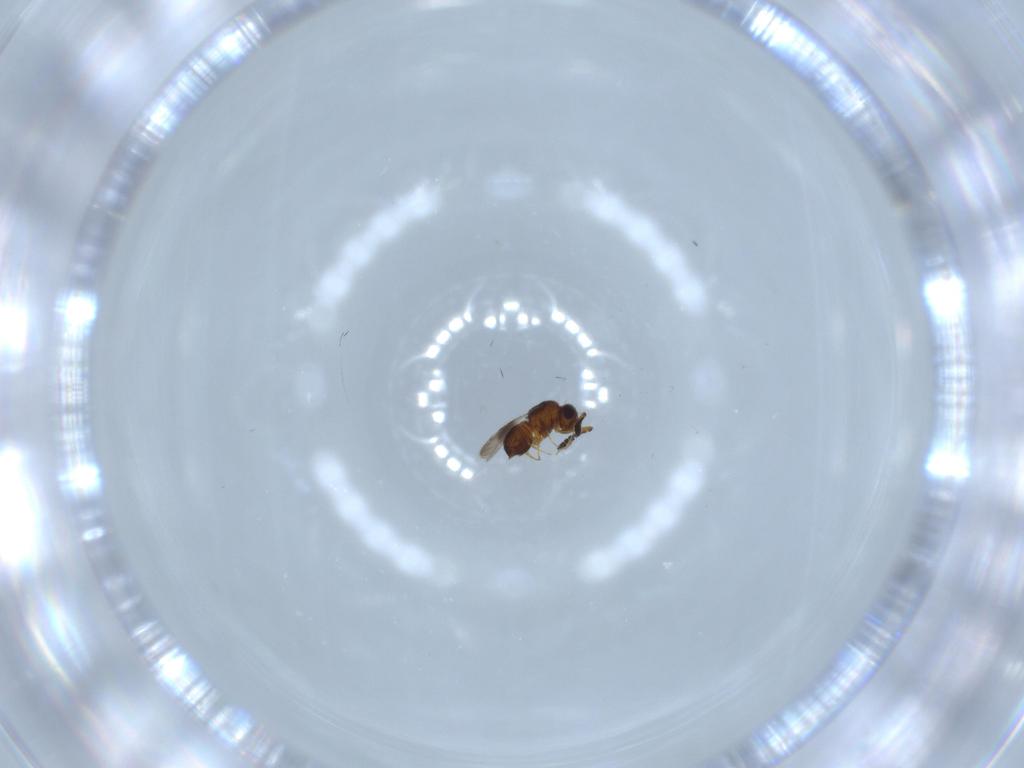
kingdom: Animalia
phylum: Arthropoda
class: Insecta
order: Hymenoptera
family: Ceraphronidae
